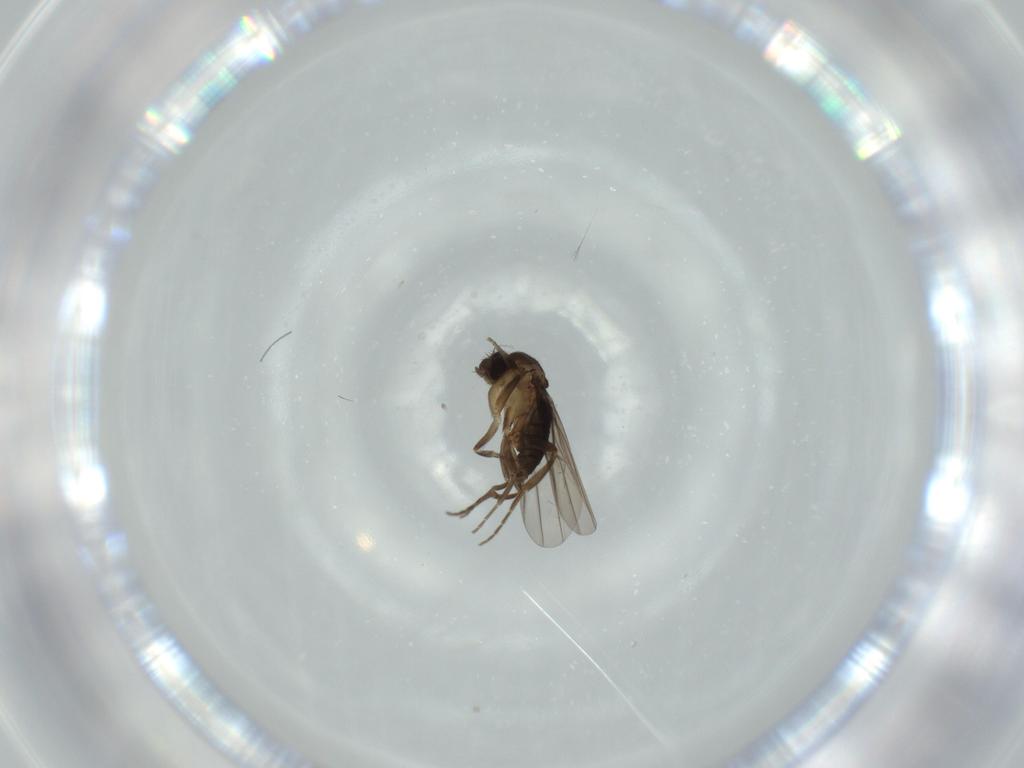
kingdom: Animalia
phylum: Arthropoda
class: Insecta
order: Diptera
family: Phoridae
